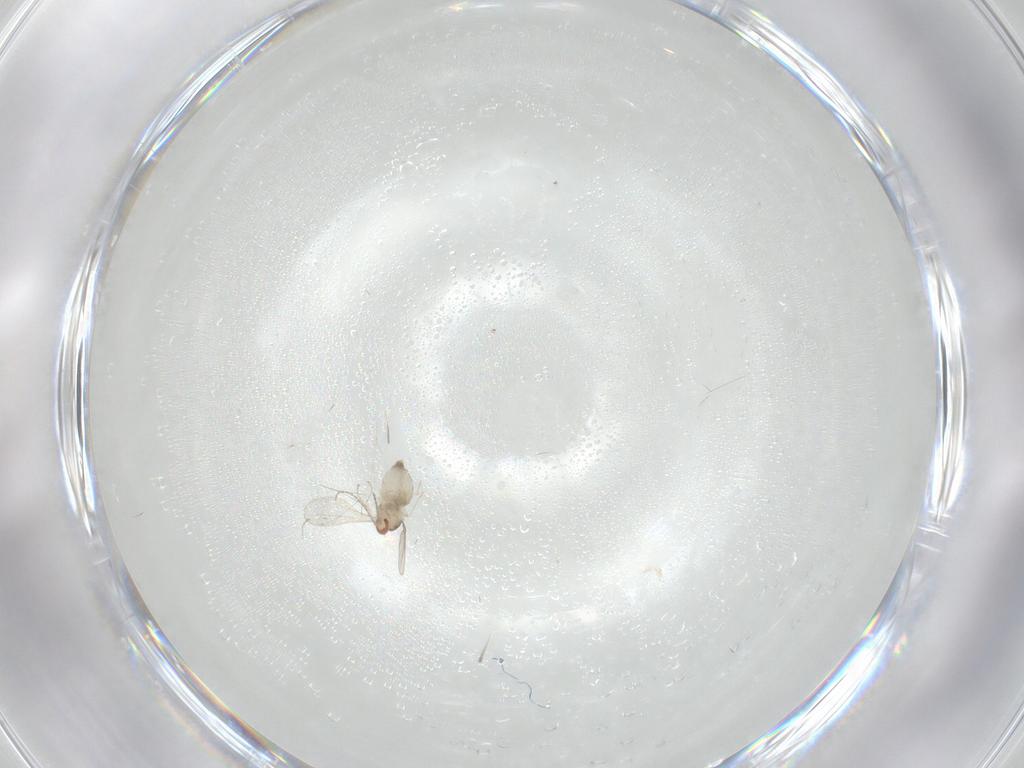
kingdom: Animalia
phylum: Arthropoda
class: Insecta
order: Diptera
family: Cecidomyiidae
